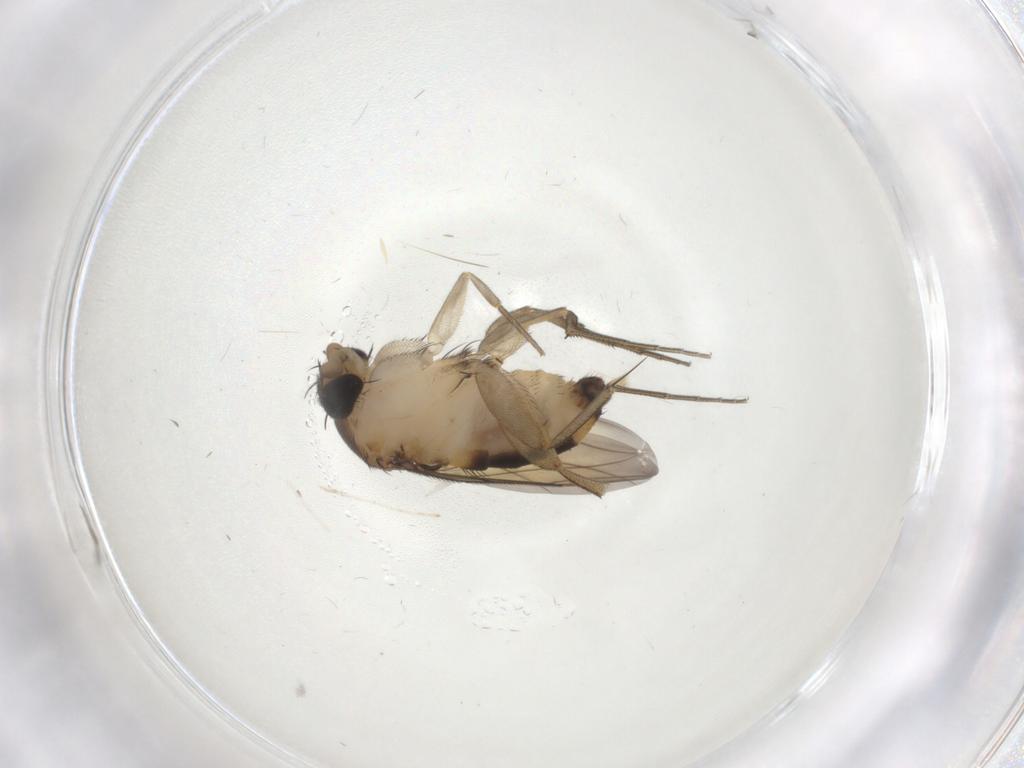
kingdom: Animalia
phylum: Arthropoda
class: Insecta
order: Diptera
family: Cecidomyiidae
